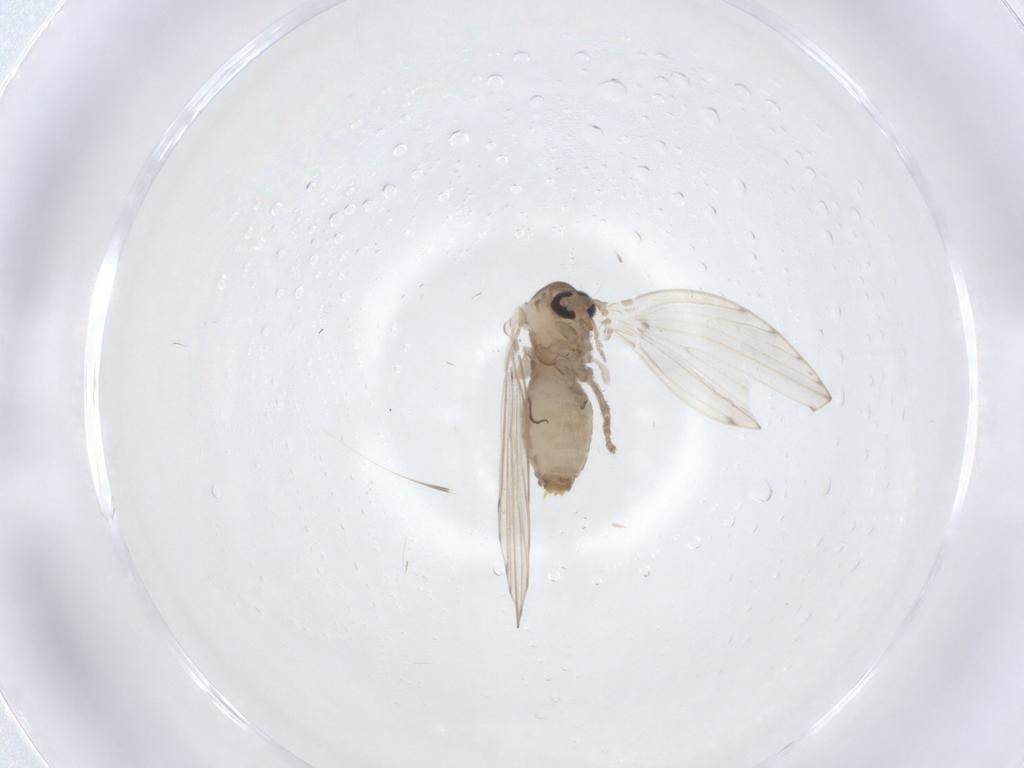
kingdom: Animalia
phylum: Arthropoda
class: Insecta
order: Diptera
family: Psychodidae
